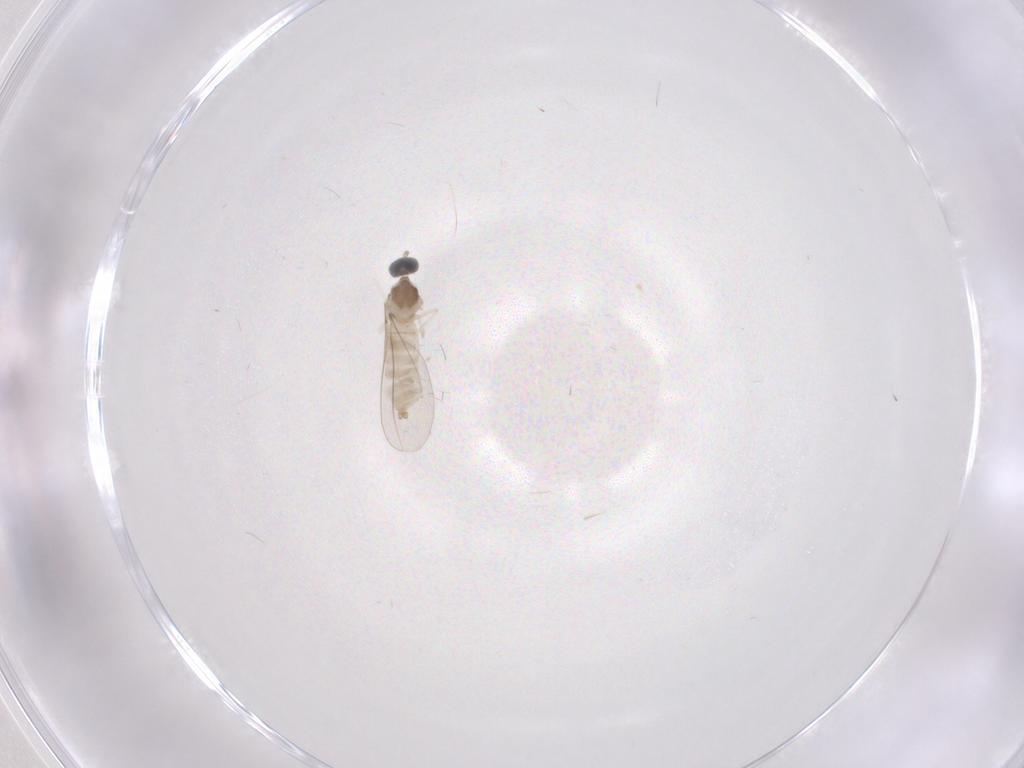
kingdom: Animalia
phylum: Arthropoda
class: Insecta
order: Diptera
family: Cecidomyiidae
